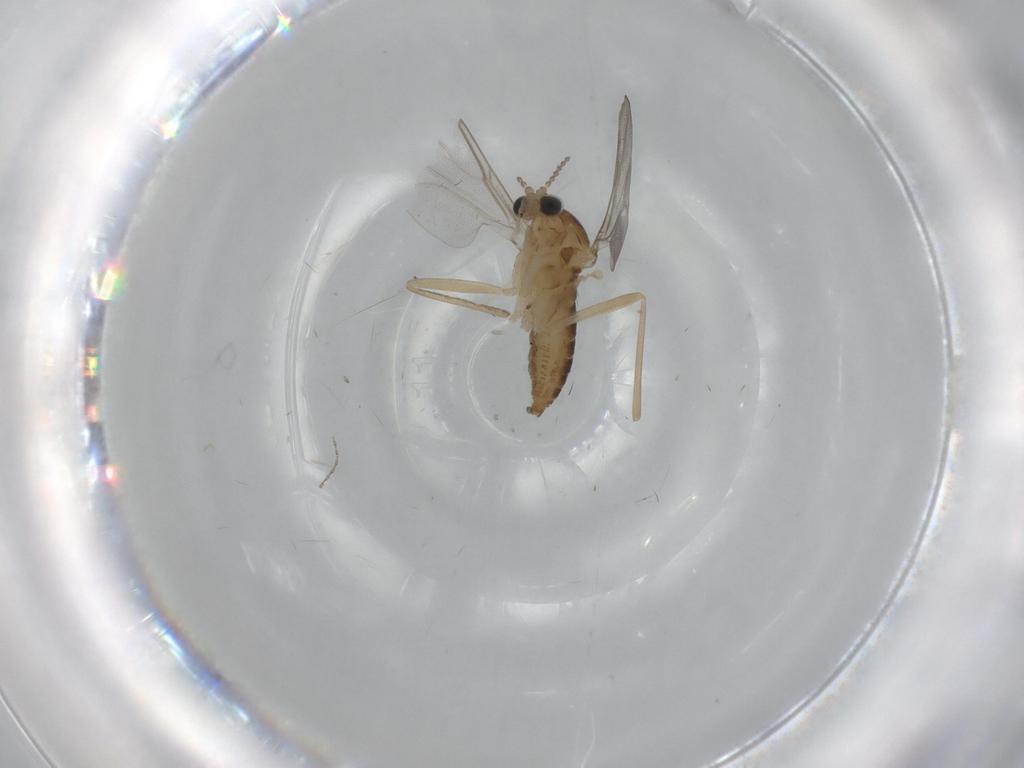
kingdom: Animalia
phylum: Arthropoda
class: Insecta
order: Diptera
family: Cecidomyiidae
